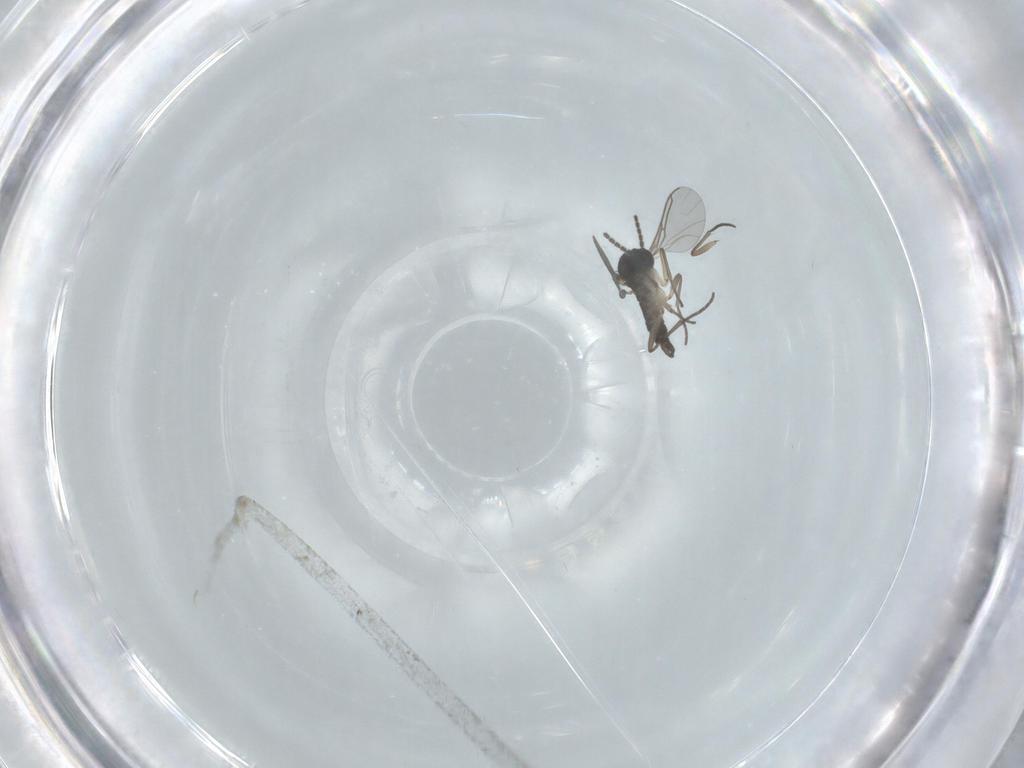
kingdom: Animalia
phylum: Arthropoda
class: Insecta
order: Diptera
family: Sciaridae
